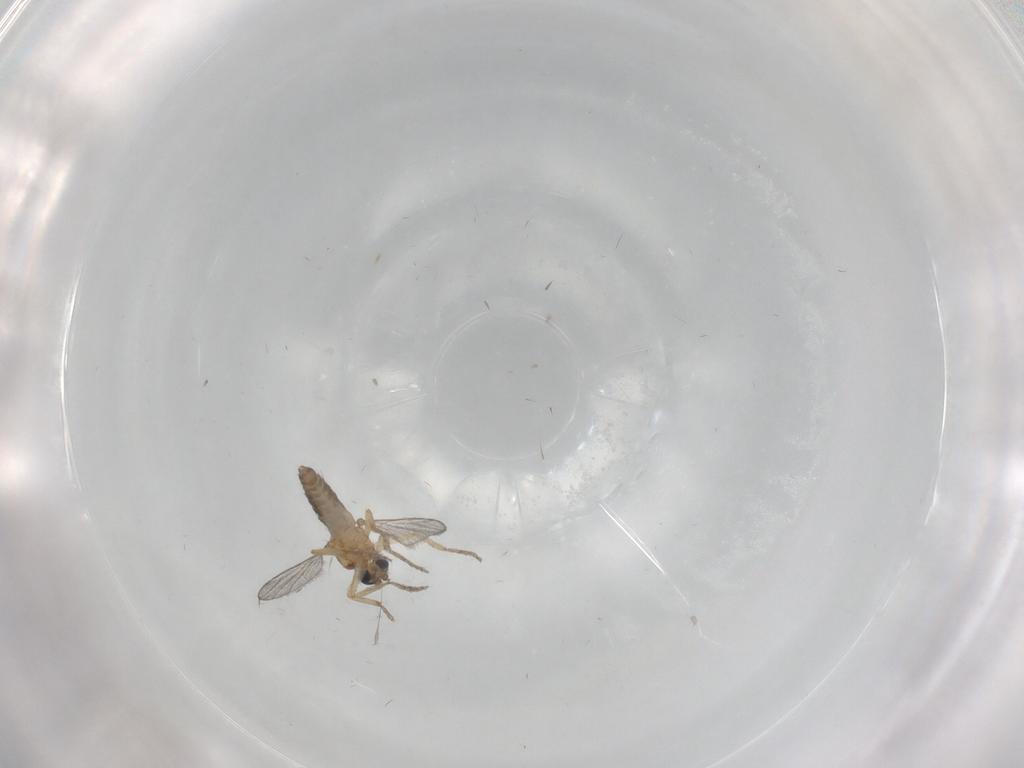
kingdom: Animalia
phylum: Arthropoda
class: Insecta
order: Diptera
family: Ceratopogonidae
